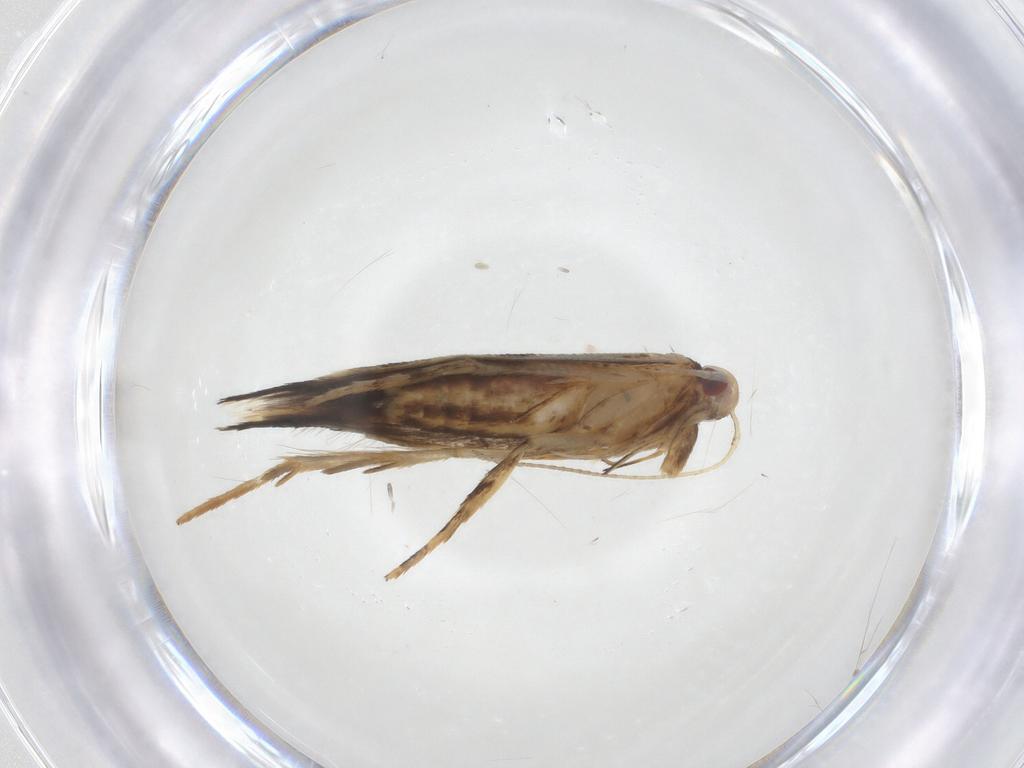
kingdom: Animalia
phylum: Arthropoda
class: Insecta
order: Lepidoptera
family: Cosmopterigidae
